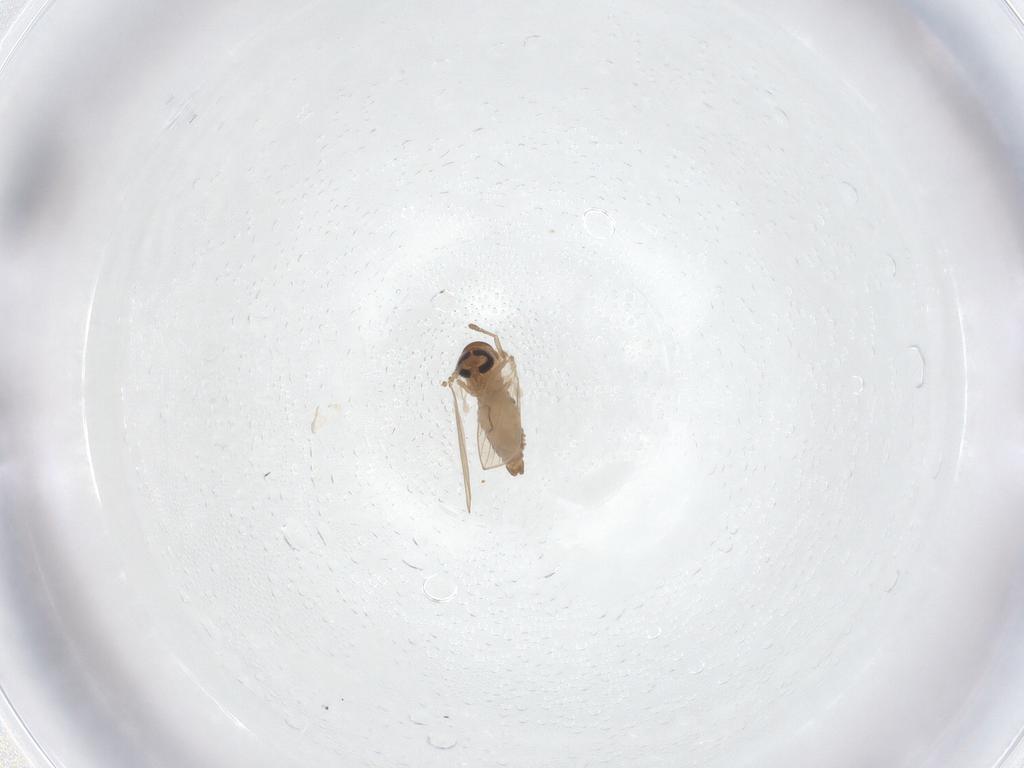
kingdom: Animalia
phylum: Arthropoda
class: Insecta
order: Diptera
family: Psychodidae
